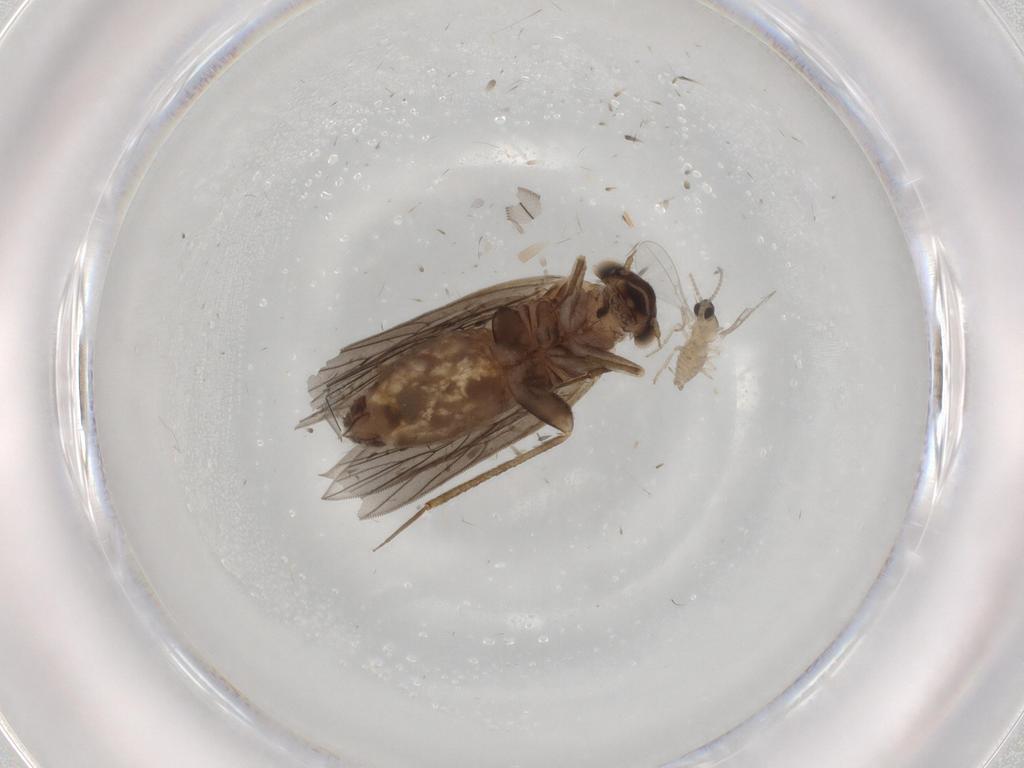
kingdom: Animalia
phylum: Arthropoda
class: Insecta
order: Psocodea
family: Lepidopsocidae
